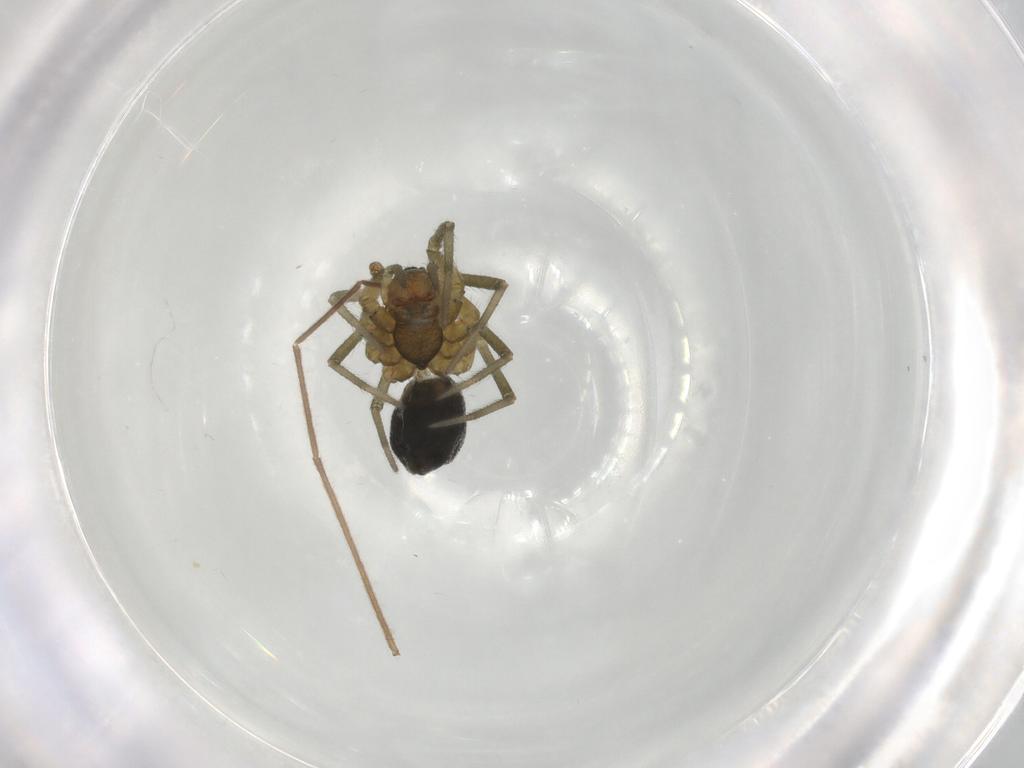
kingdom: Animalia
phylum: Arthropoda
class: Arachnida
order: Araneae
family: Linyphiidae
